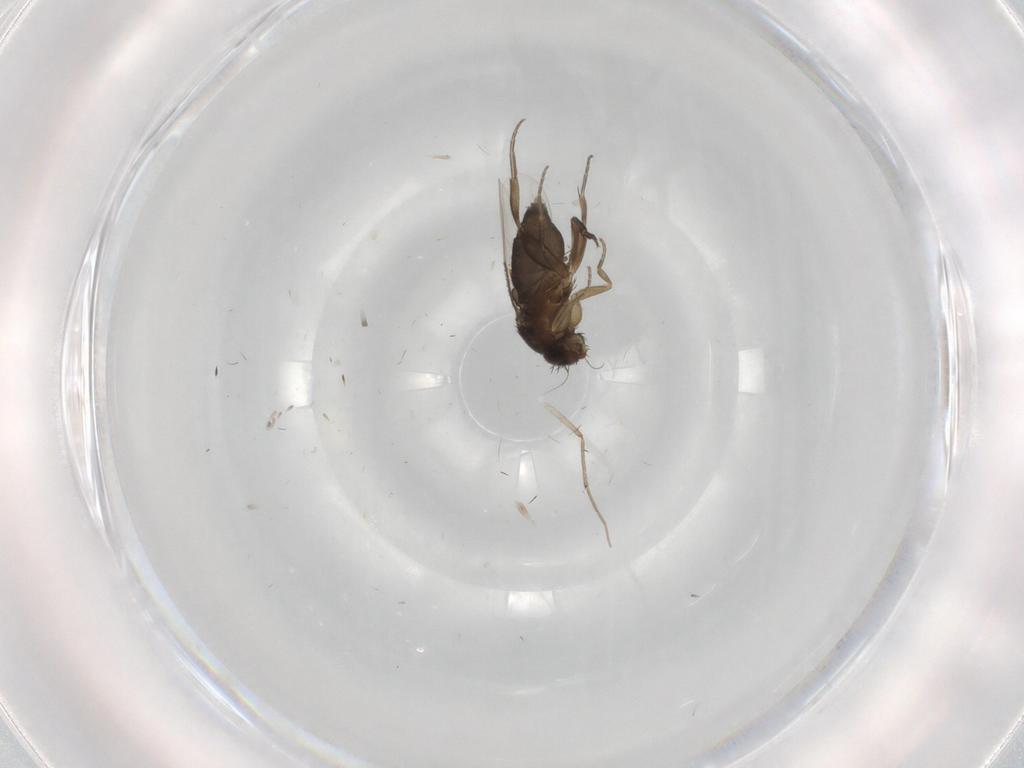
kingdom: Animalia
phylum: Arthropoda
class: Insecta
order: Diptera
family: Phoridae
